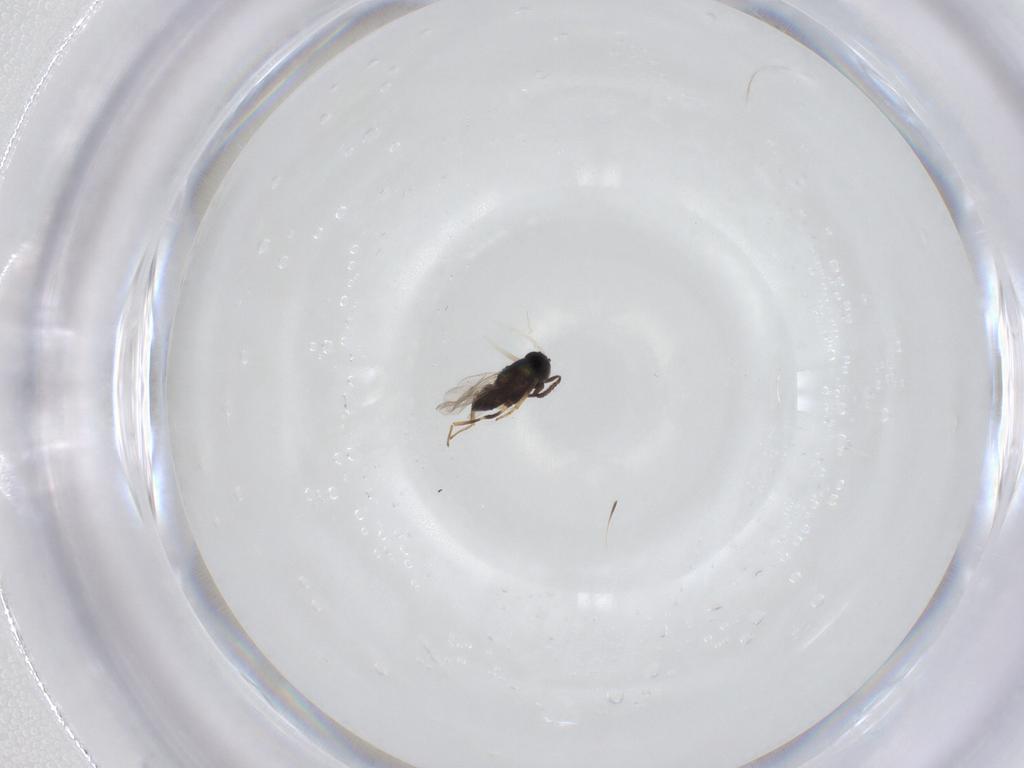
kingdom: Animalia
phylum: Arthropoda
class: Insecta
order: Hymenoptera
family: Encyrtidae
